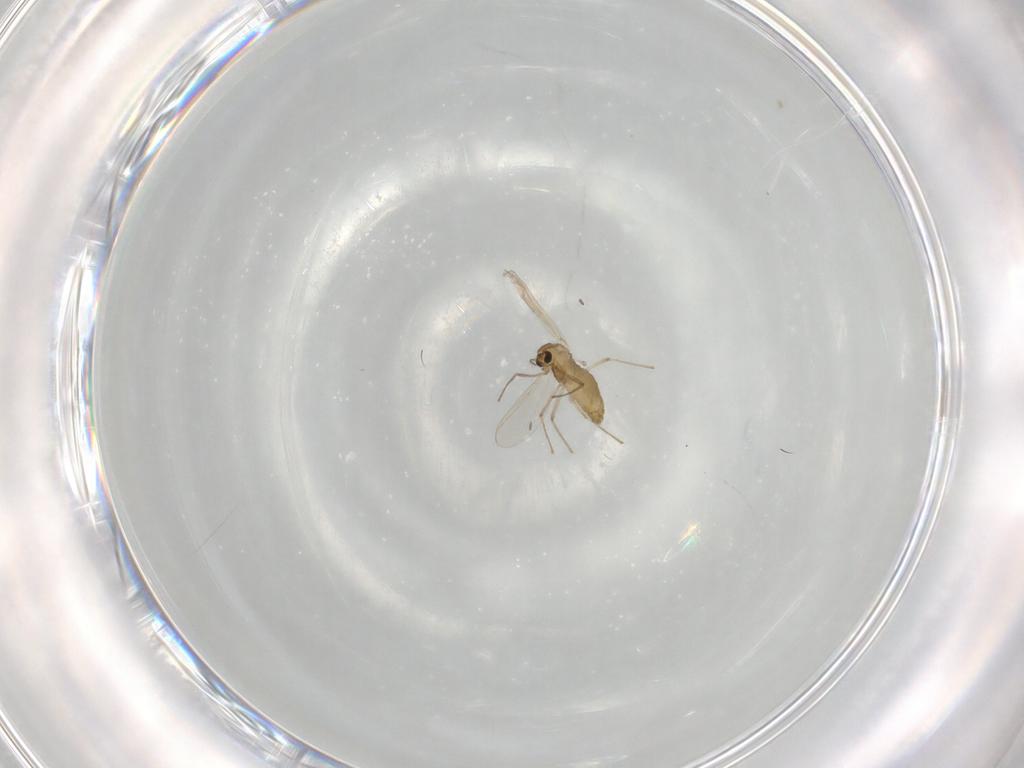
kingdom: Animalia
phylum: Arthropoda
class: Insecta
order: Diptera
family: Chironomidae
